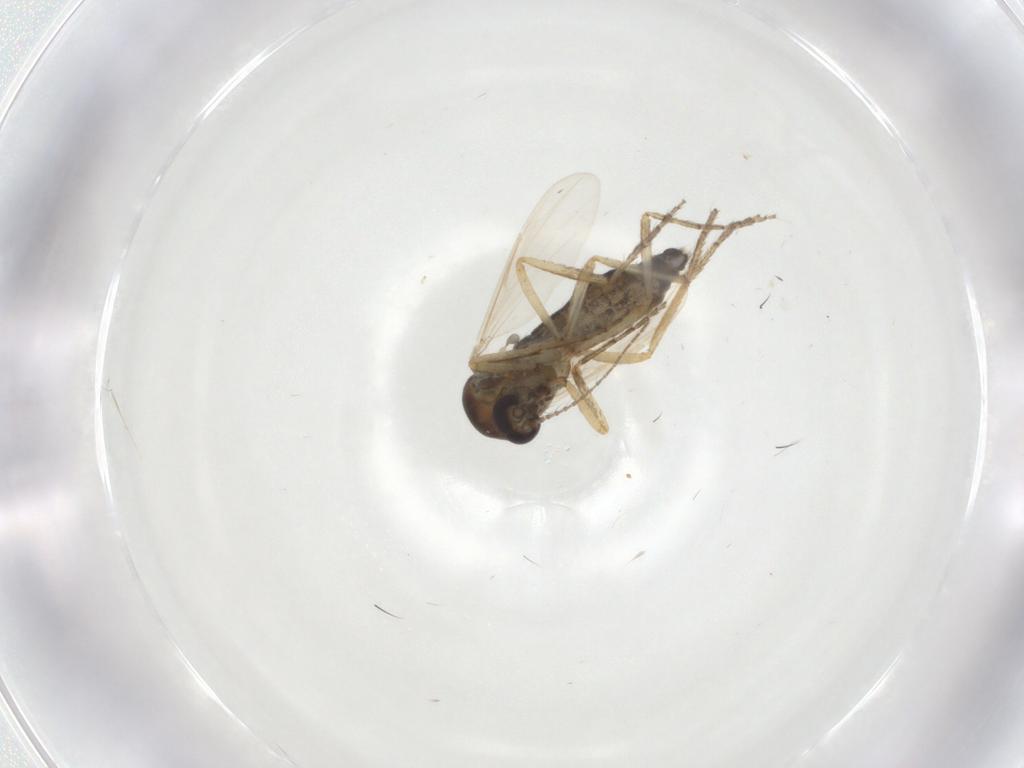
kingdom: Animalia
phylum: Arthropoda
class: Insecta
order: Diptera
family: Ceratopogonidae
